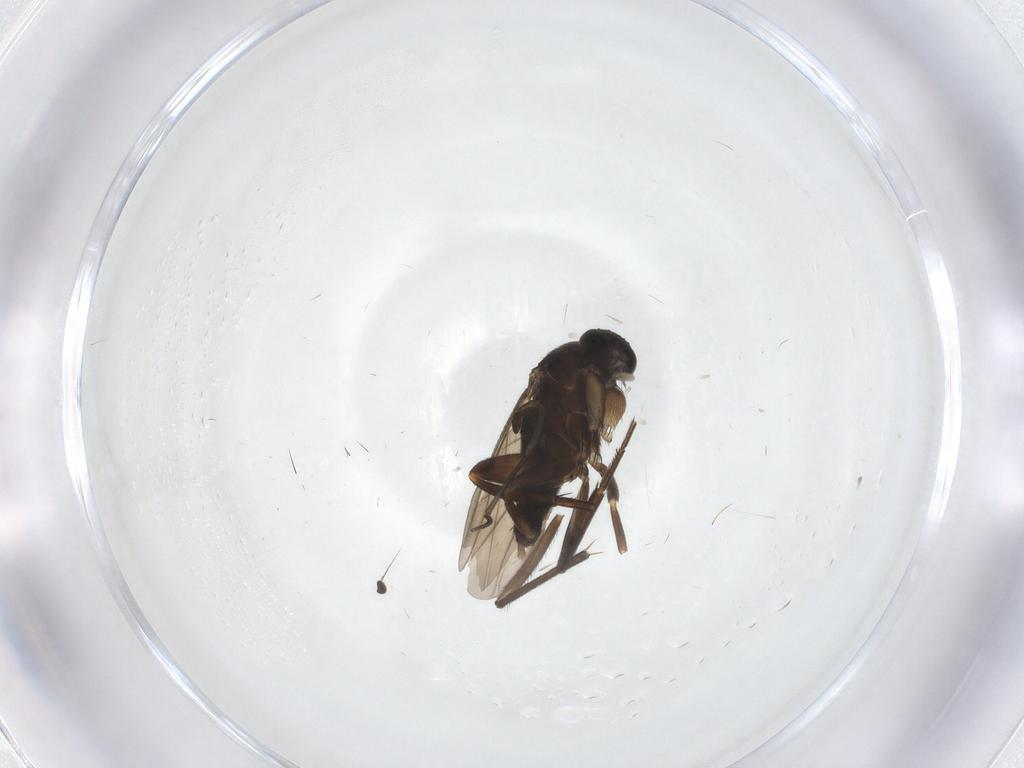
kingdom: Animalia
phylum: Arthropoda
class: Insecta
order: Diptera
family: Phoridae
